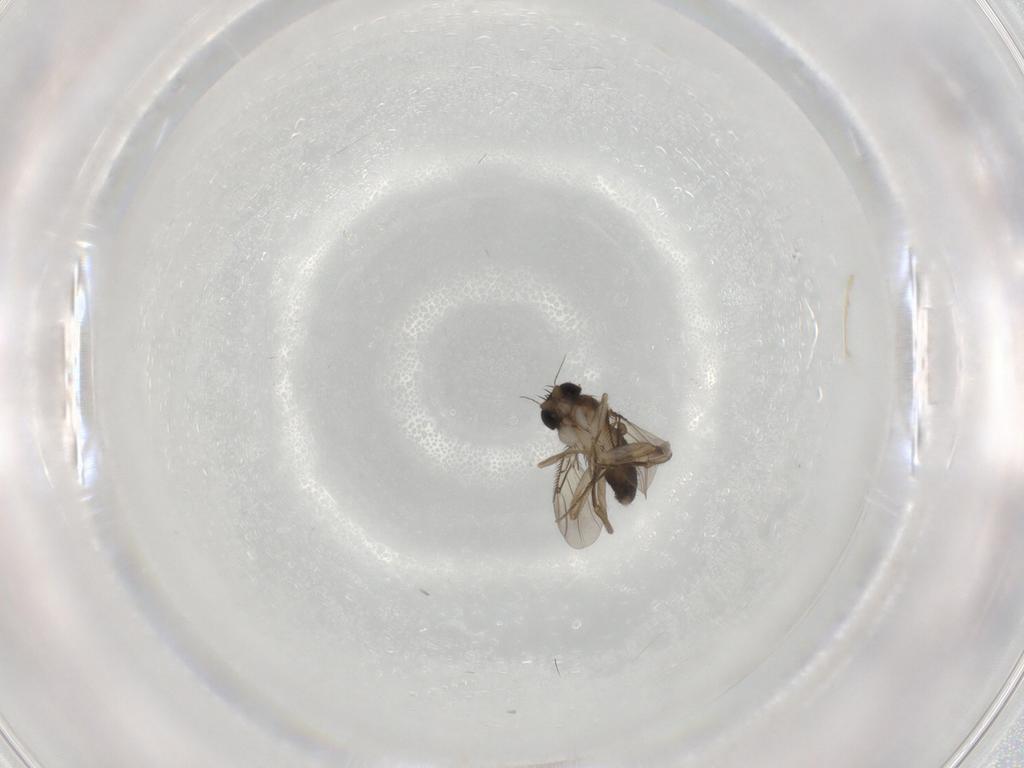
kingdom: Animalia
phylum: Arthropoda
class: Insecta
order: Diptera
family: Phoridae
